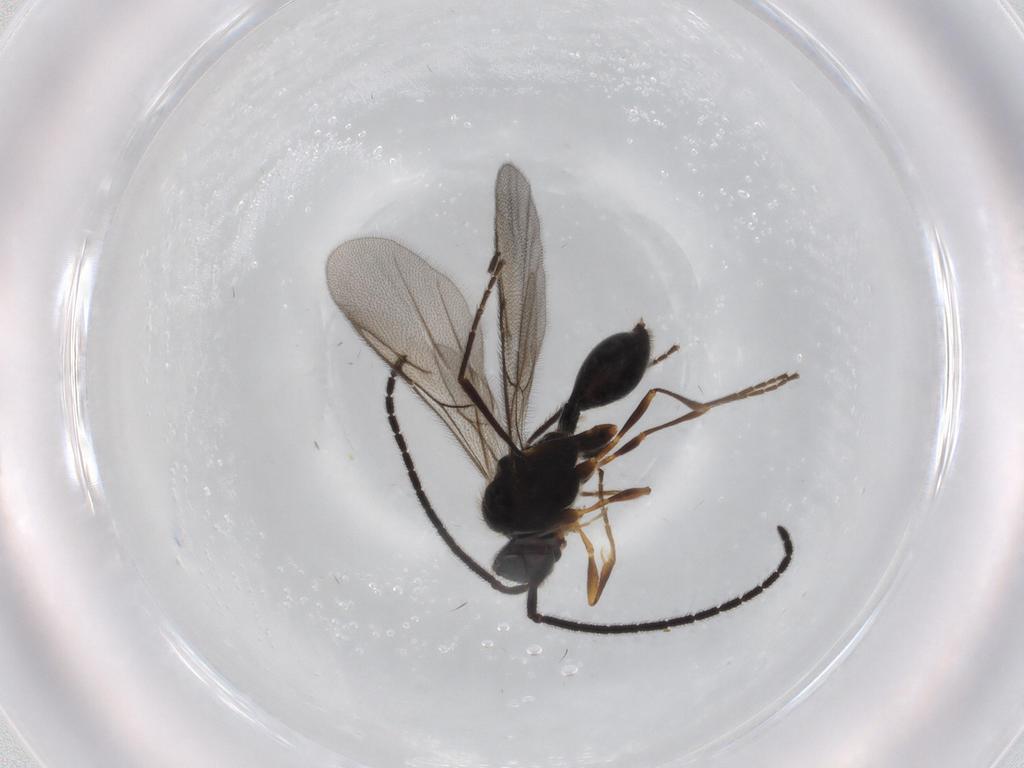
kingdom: Animalia
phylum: Arthropoda
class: Insecta
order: Hymenoptera
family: Diapriidae
